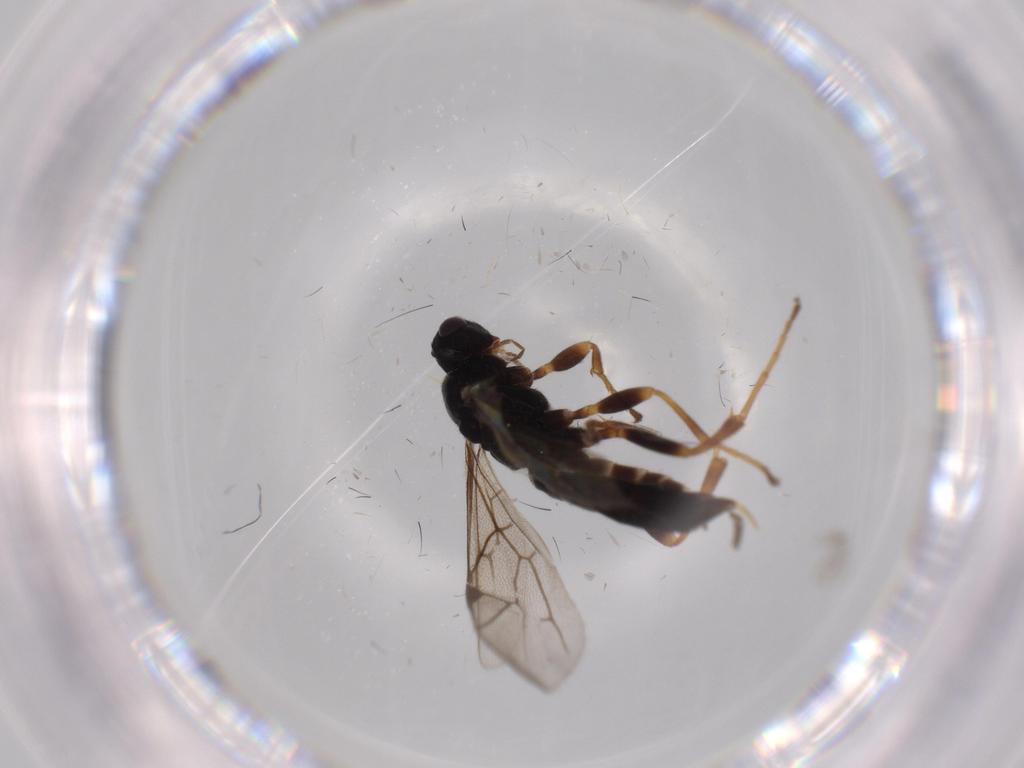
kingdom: Animalia
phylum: Arthropoda
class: Insecta
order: Hymenoptera
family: Ichneumonidae
